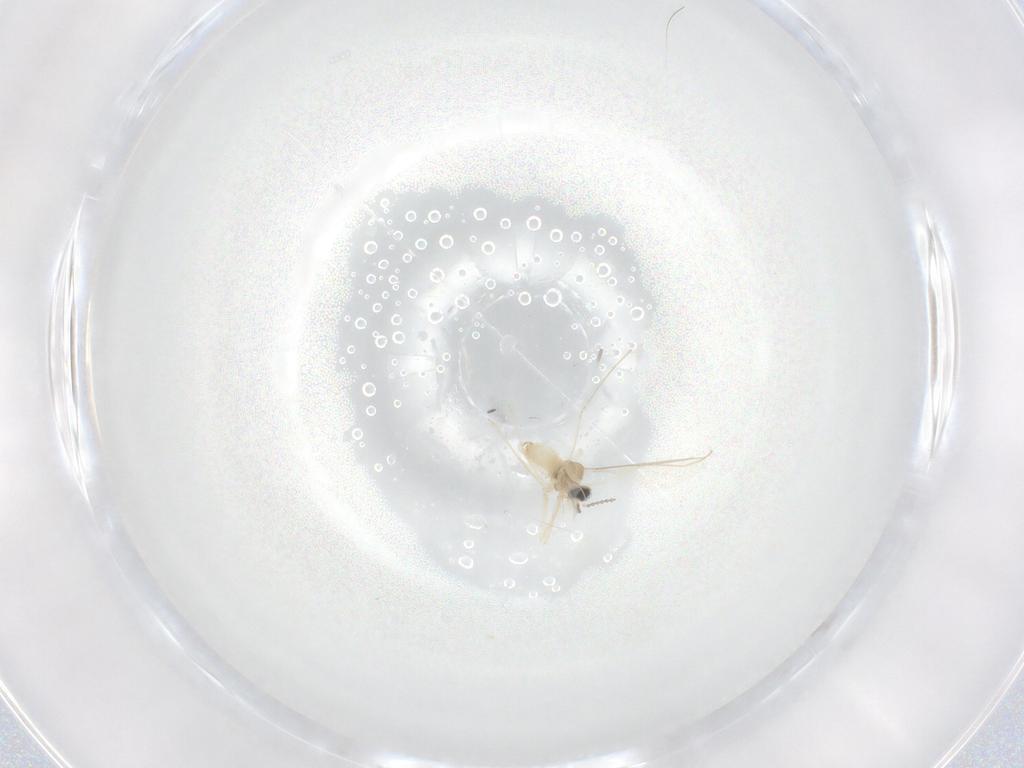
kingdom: Animalia
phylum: Arthropoda
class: Insecta
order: Diptera
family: Cecidomyiidae
